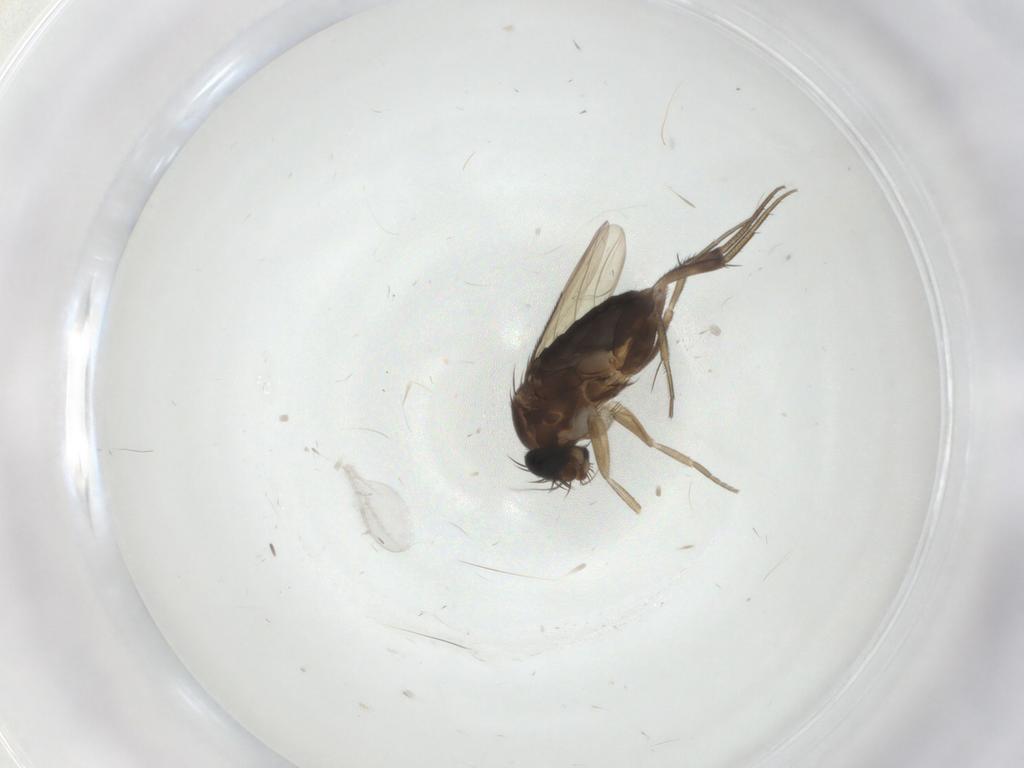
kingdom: Animalia
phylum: Arthropoda
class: Insecta
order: Diptera
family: Phoridae
